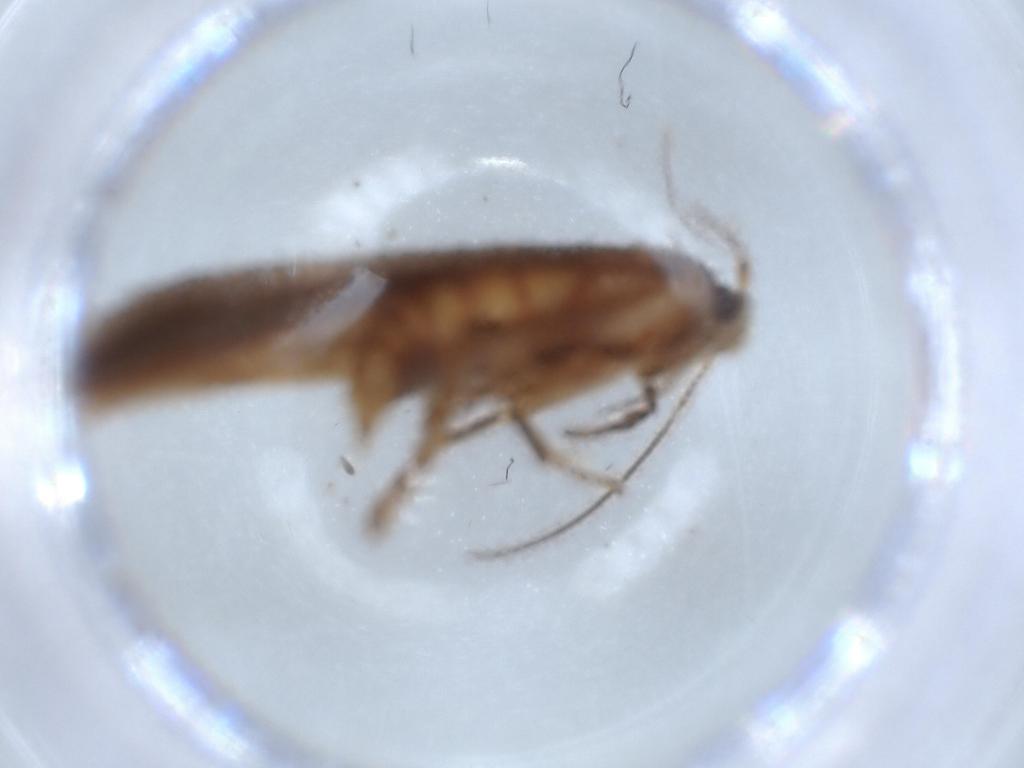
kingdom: Animalia
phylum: Arthropoda
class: Insecta
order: Lepidoptera
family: Stathmopodidae
